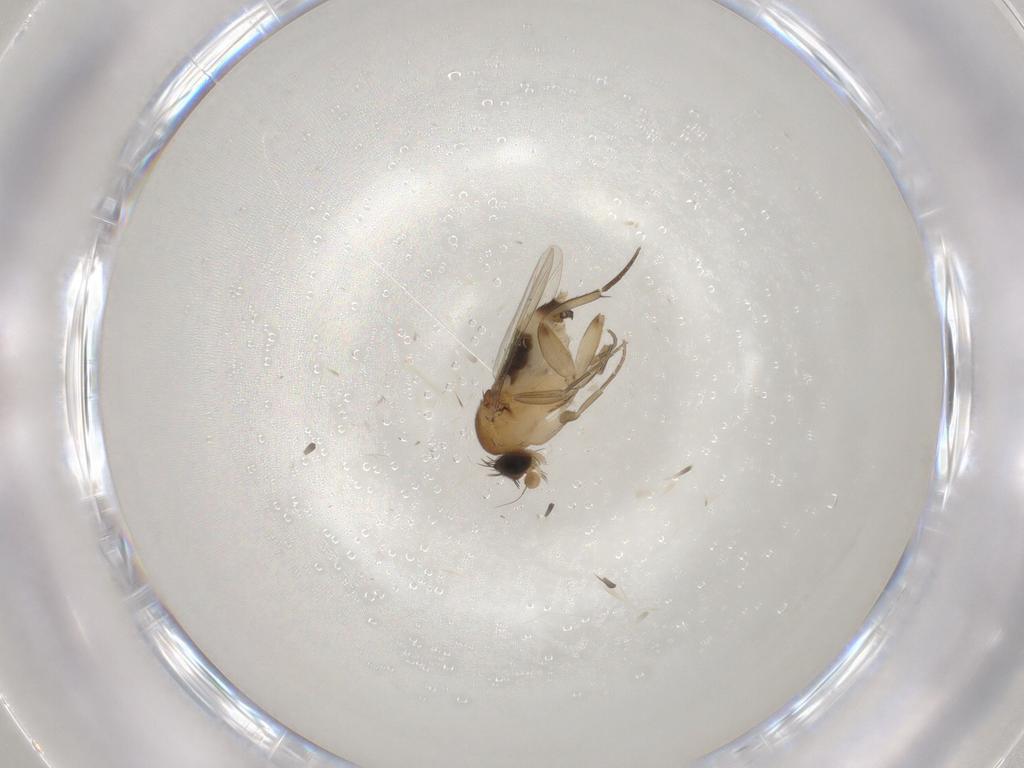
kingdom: Animalia
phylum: Arthropoda
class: Insecta
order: Diptera
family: Phoridae
